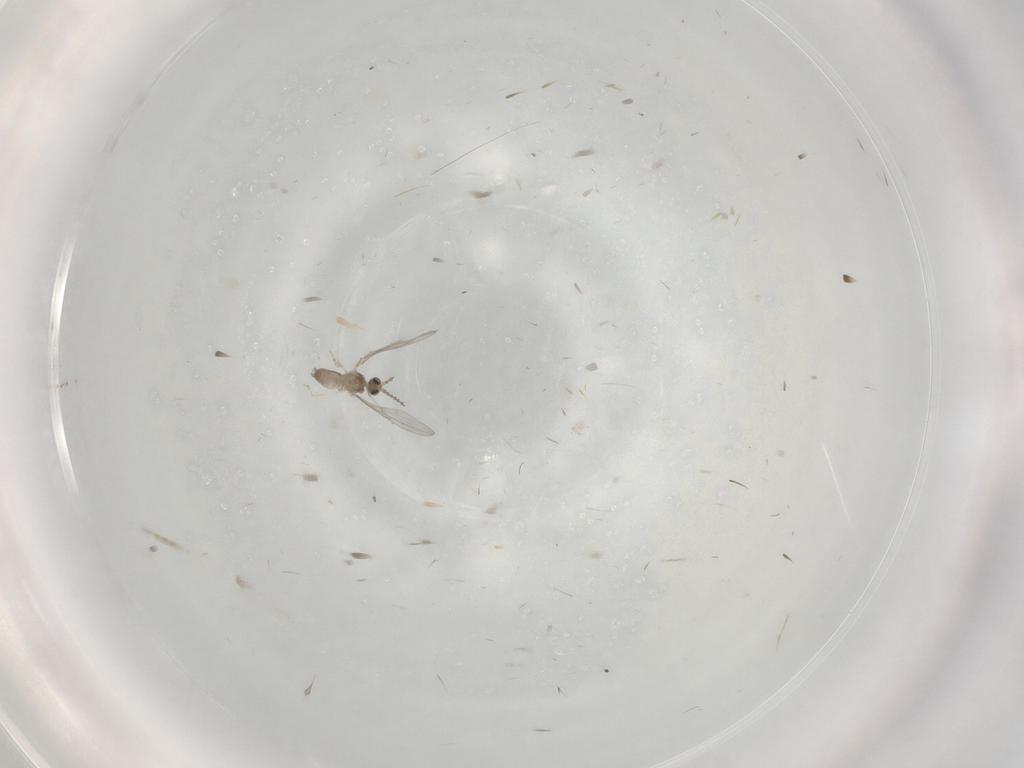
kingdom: Animalia
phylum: Arthropoda
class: Insecta
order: Diptera
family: Cecidomyiidae
